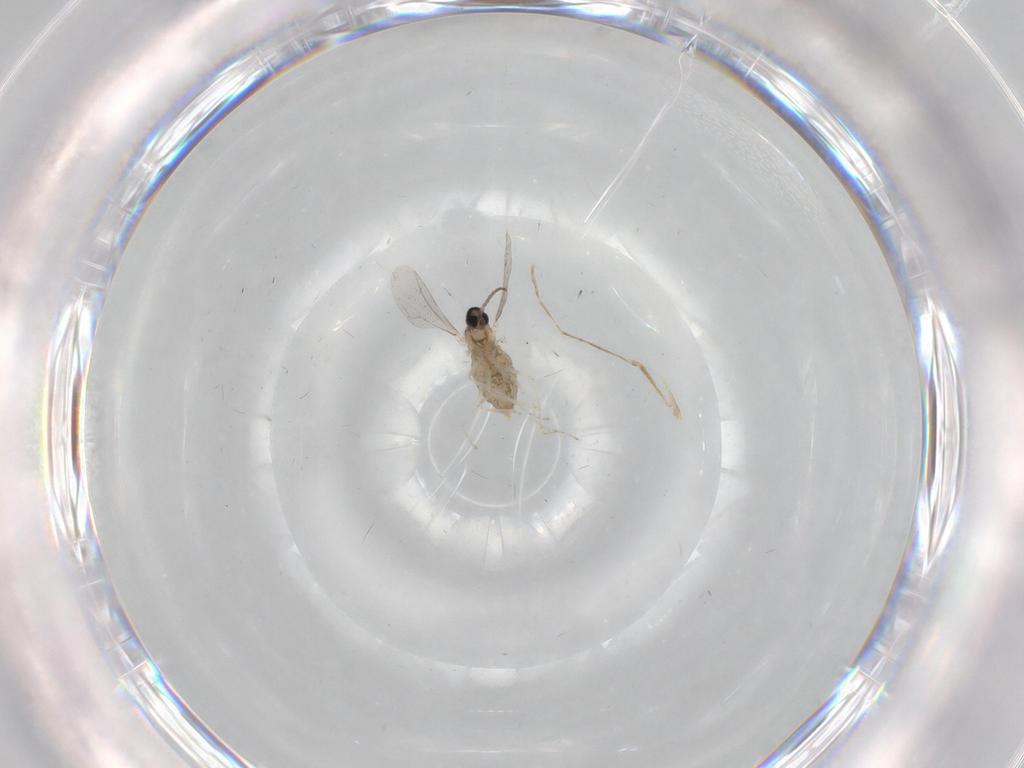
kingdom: Animalia
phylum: Arthropoda
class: Insecta
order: Diptera
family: Cecidomyiidae
